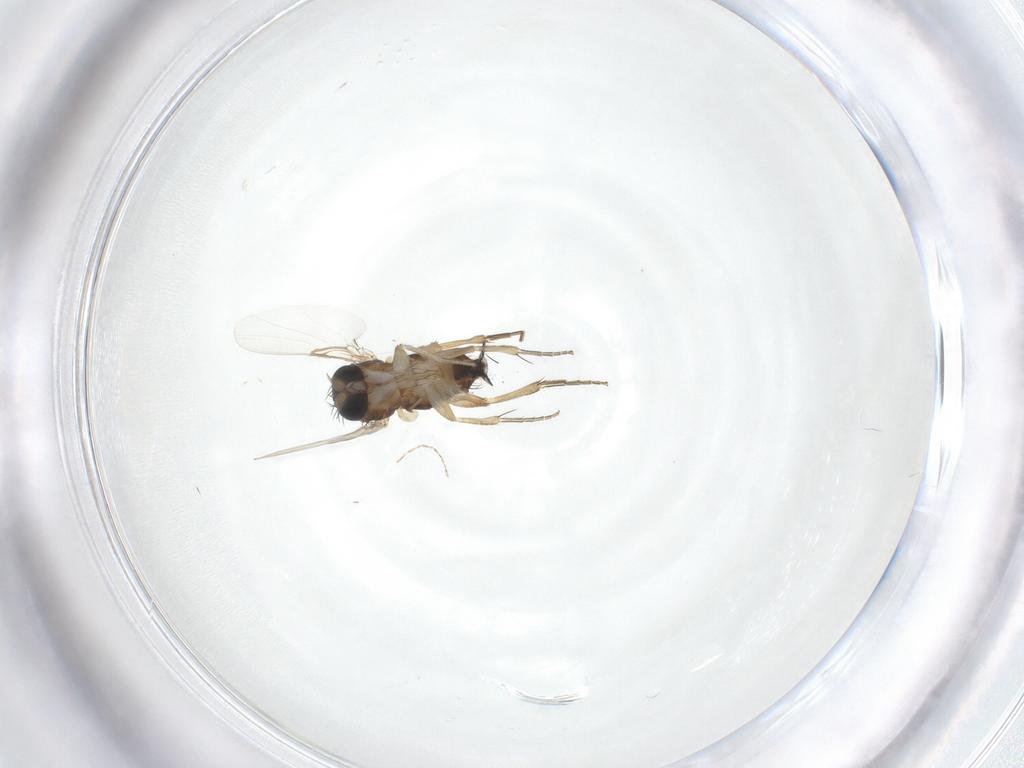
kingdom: Animalia
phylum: Arthropoda
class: Insecta
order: Diptera
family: Phoridae
